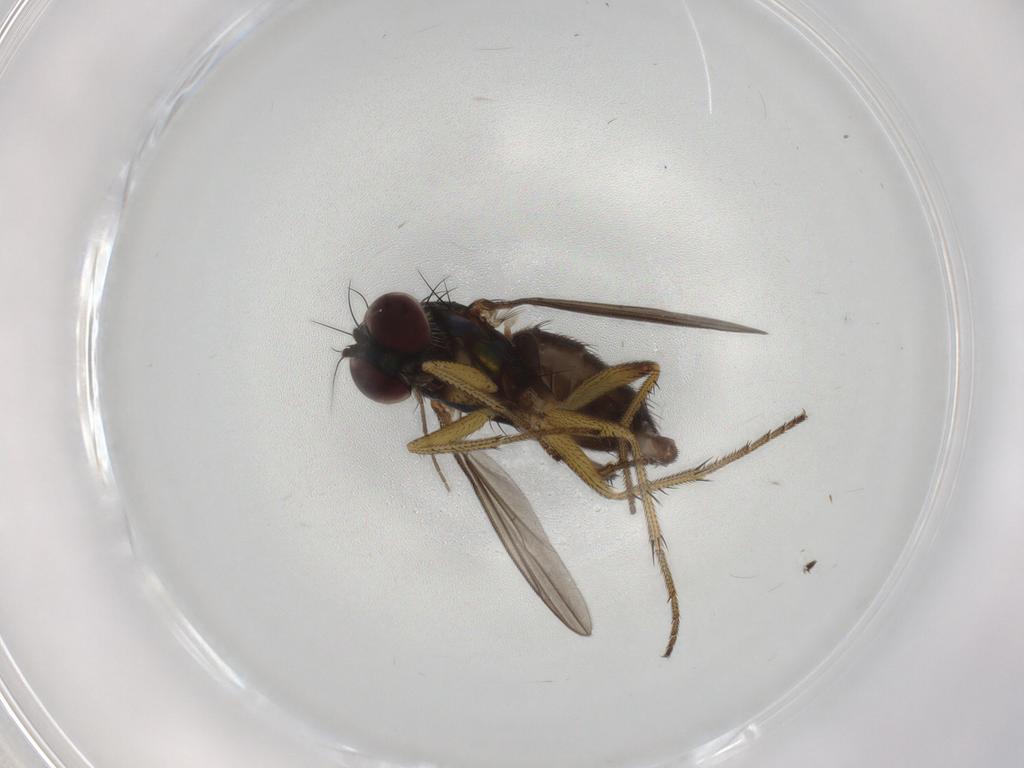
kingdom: Animalia
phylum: Arthropoda
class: Insecta
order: Diptera
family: Dolichopodidae
